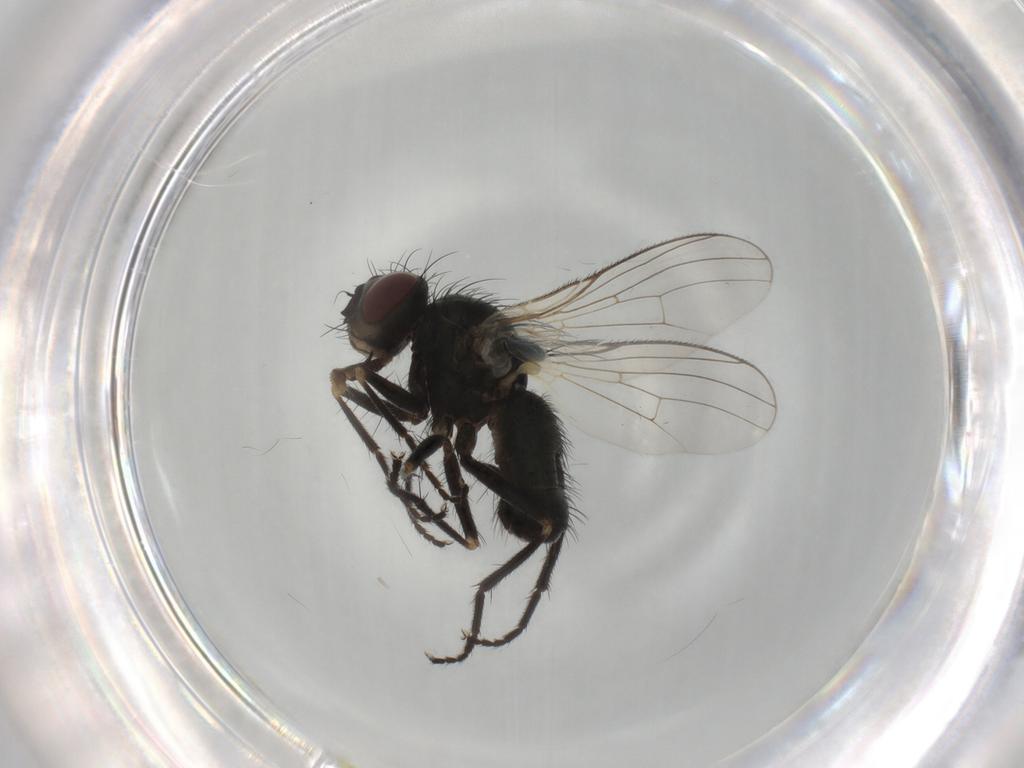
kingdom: Animalia
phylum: Arthropoda
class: Insecta
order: Diptera
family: Muscidae
